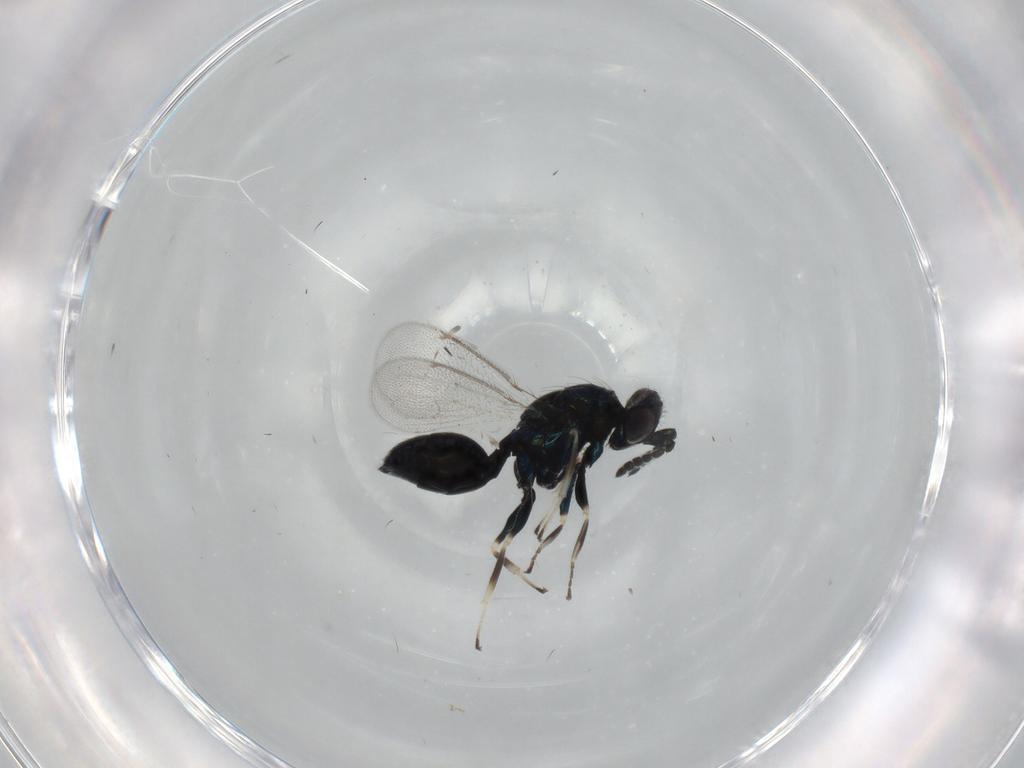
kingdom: Animalia
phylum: Arthropoda
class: Insecta
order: Hymenoptera
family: Eulophidae
